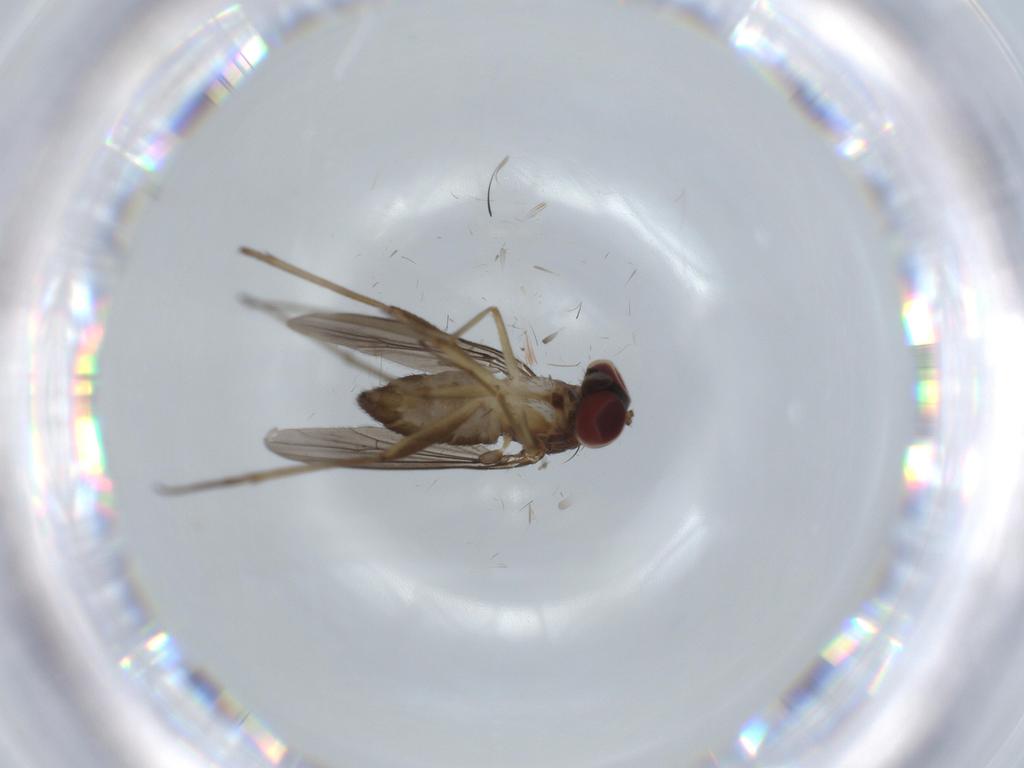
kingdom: Animalia
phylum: Arthropoda
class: Insecta
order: Diptera
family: Dolichopodidae
